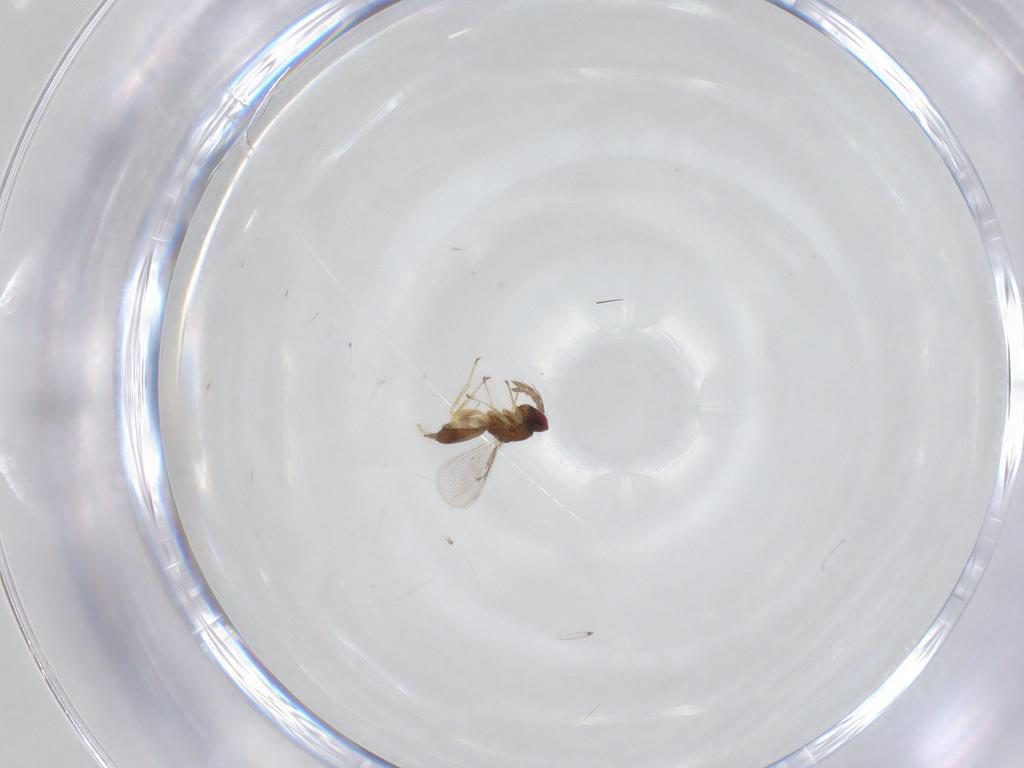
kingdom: Animalia
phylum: Arthropoda
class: Insecta
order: Hymenoptera
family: Eulophidae
